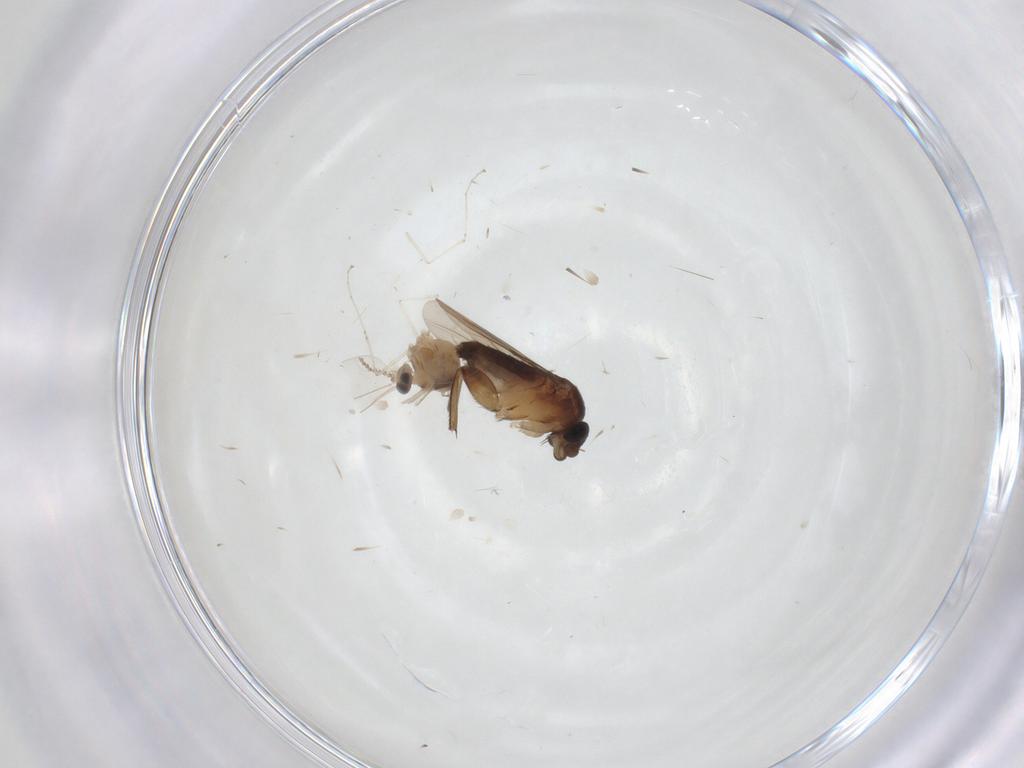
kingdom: Animalia
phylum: Arthropoda
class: Insecta
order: Diptera
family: Phoridae
